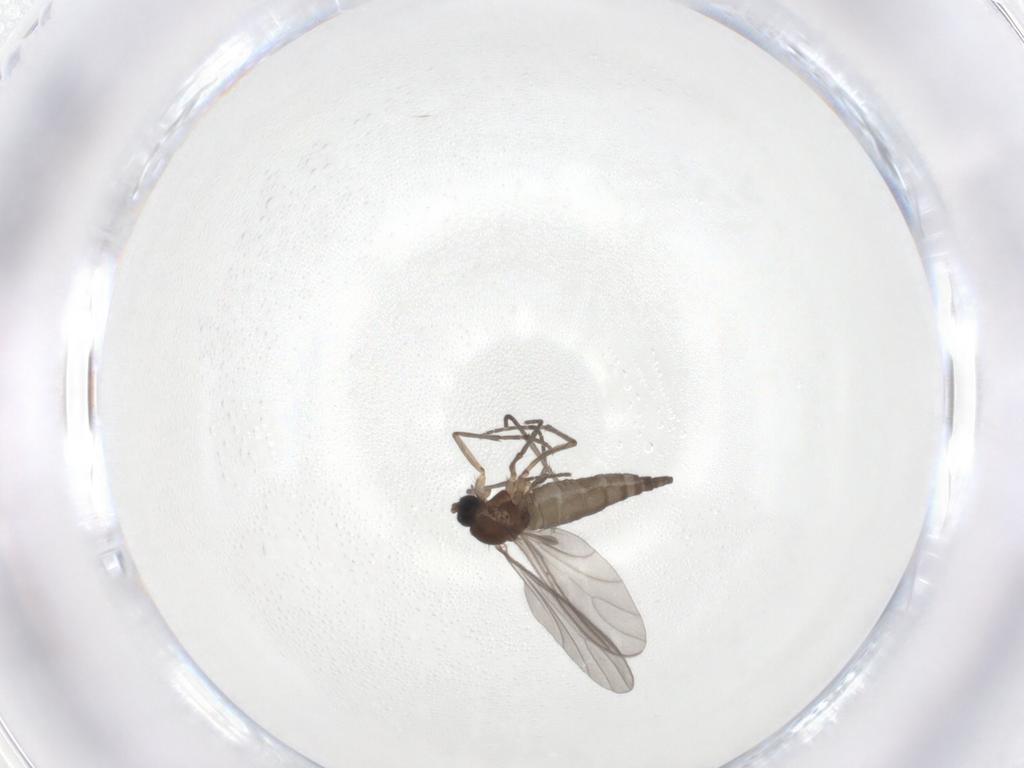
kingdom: Animalia
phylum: Arthropoda
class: Insecta
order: Diptera
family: Sciaridae
